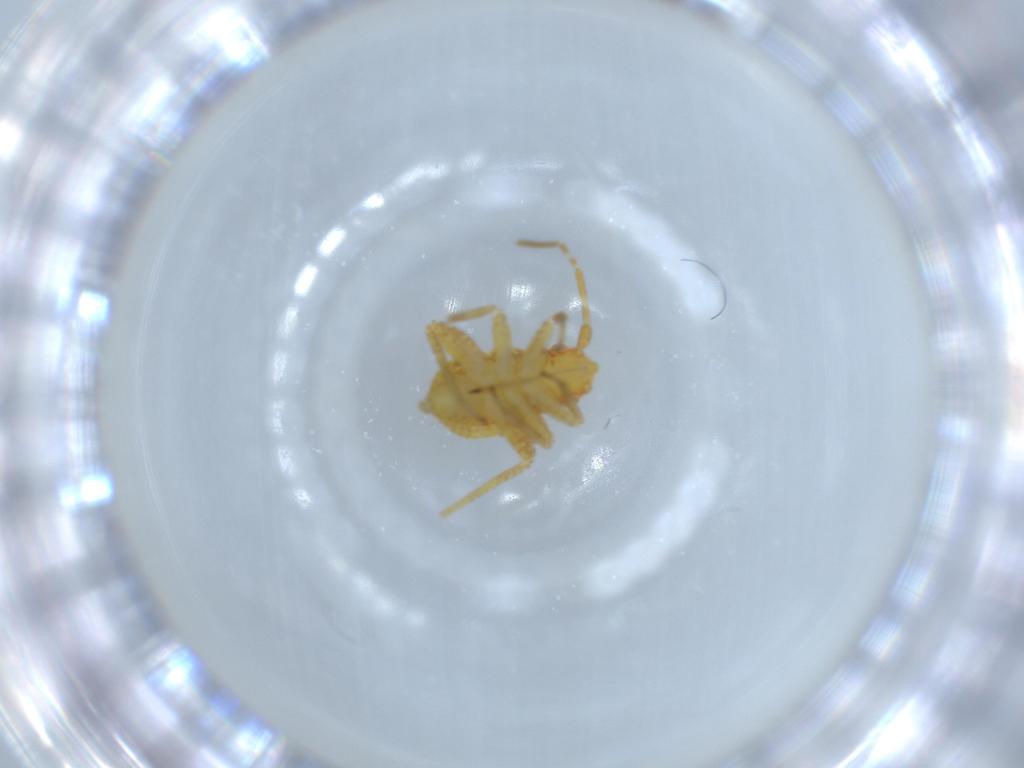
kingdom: Animalia
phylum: Arthropoda
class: Insecta
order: Hemiptera
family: Miridae
